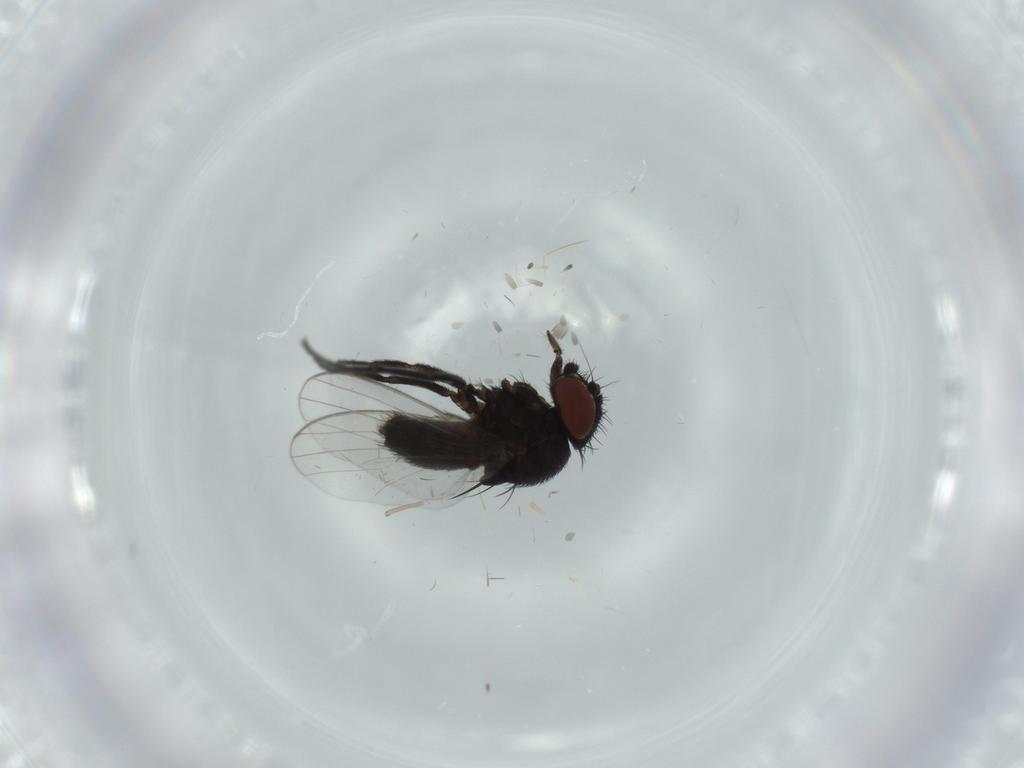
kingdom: Animalia
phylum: Arthropoda
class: Insecta
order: Diptera
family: Milichiidae
